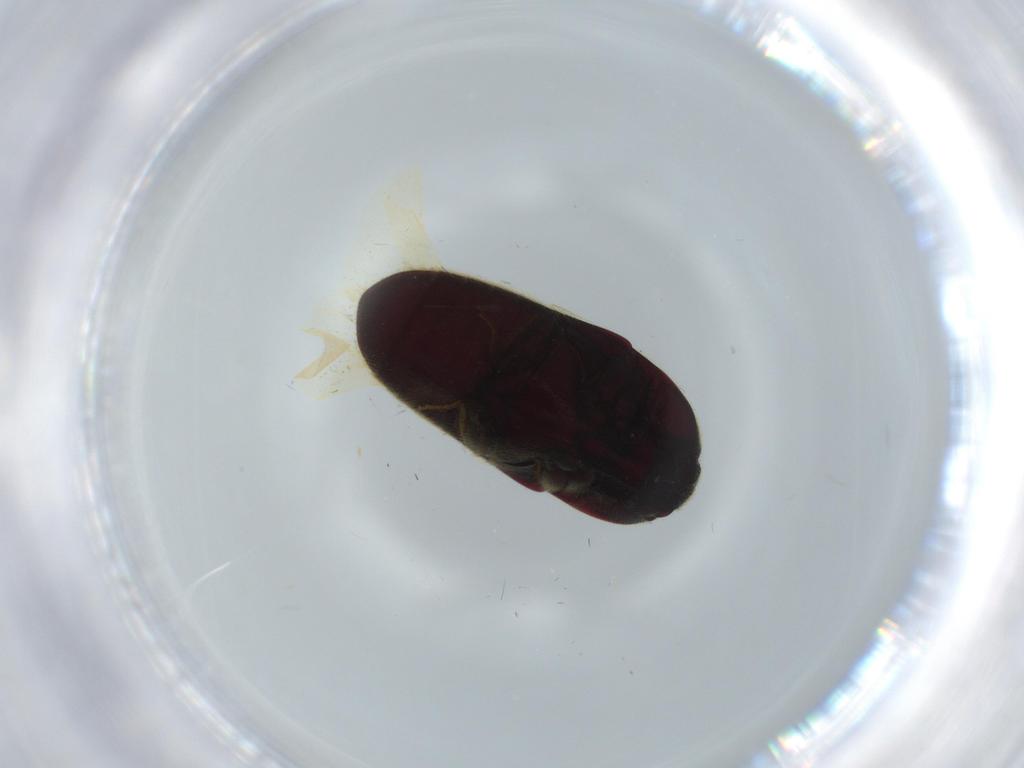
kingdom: Animalia
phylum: Arthropoda
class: Insecta
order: Coleoptera
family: Throscidae
